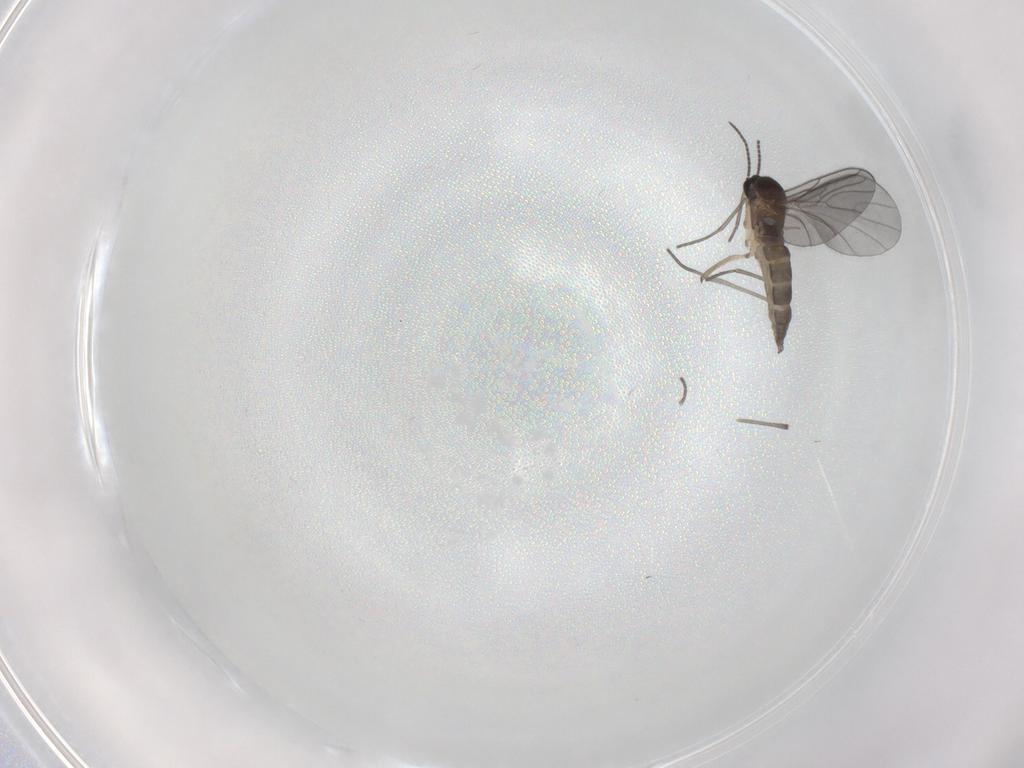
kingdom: Animalia
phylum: Arthropoda
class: Insecta
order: Diptera
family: Sciaridae
